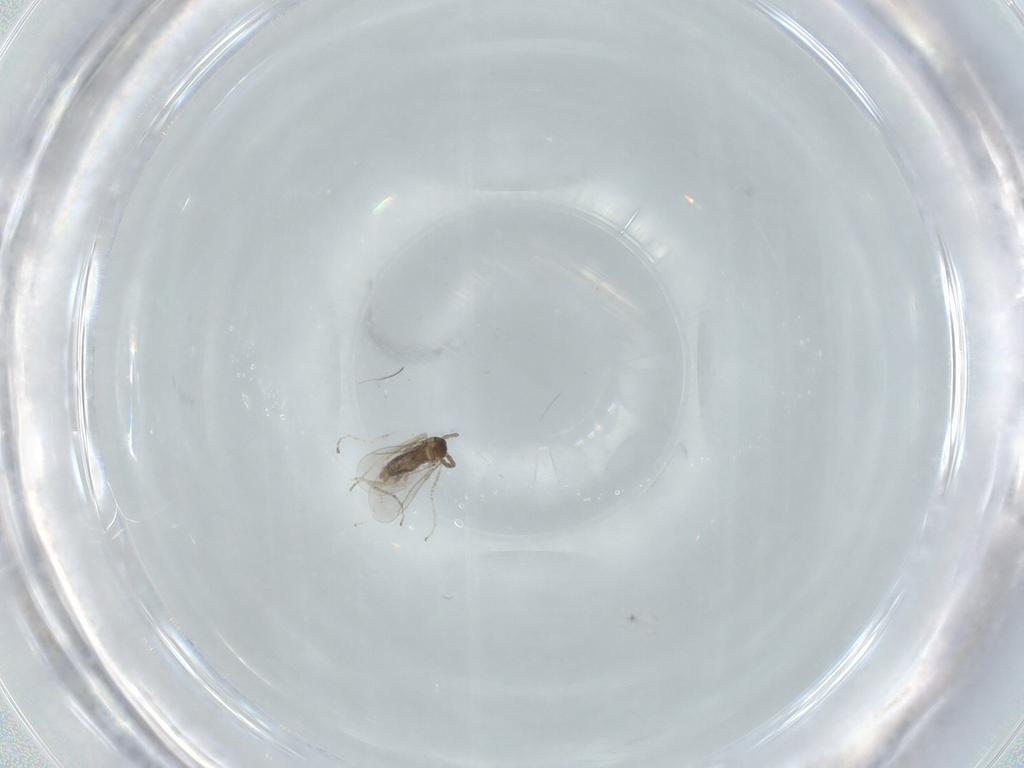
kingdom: Animalia
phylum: Arthropoda
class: Insecta
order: Diptera
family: Cecidomyiidae
